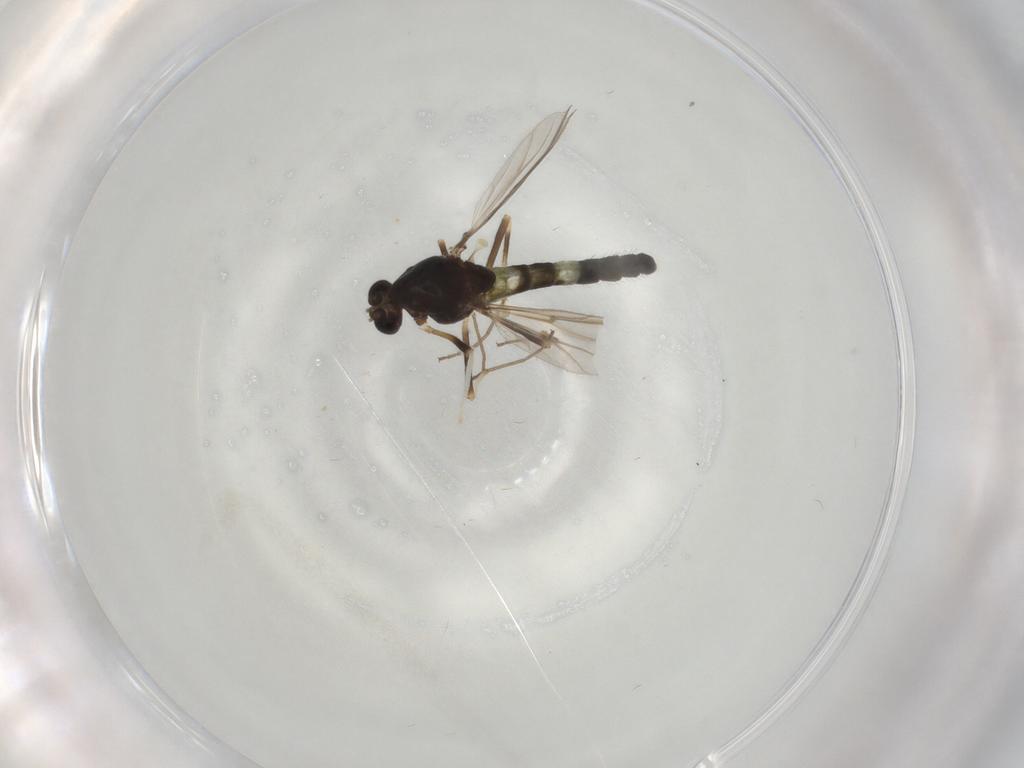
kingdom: Animalia
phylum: Arthropoda
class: Insecta
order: Diptera
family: Chironomidae
